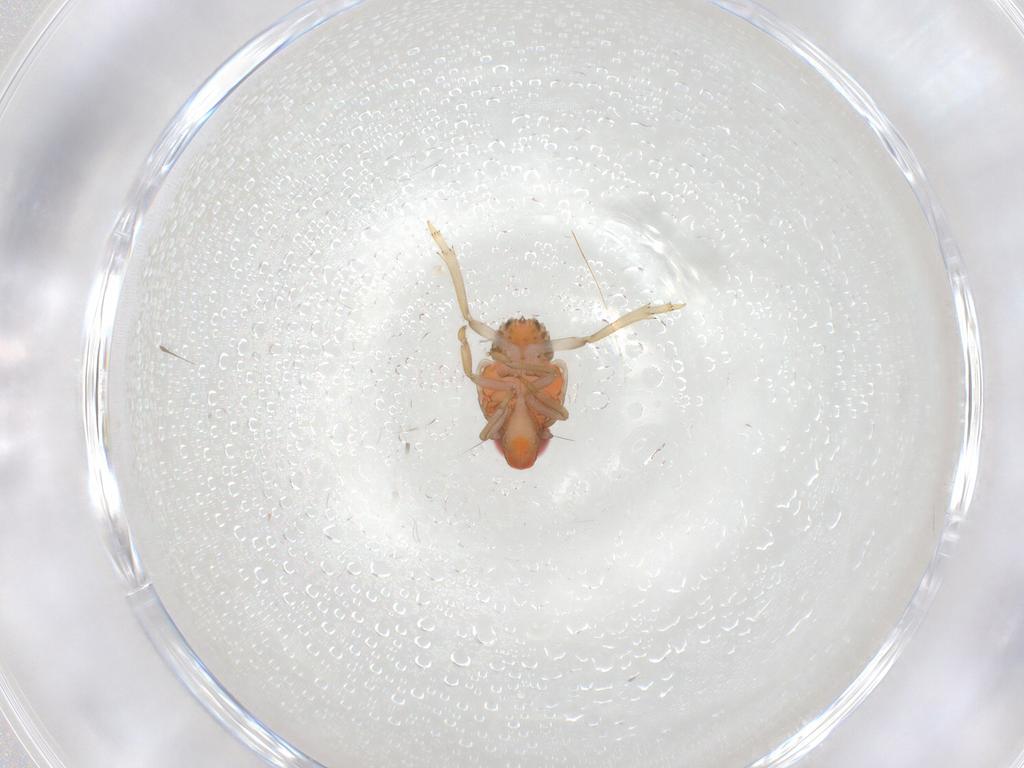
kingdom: Animalia
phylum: Arthropoda
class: Insecta
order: Hemiptera
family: Fulgoroidea_incertae_sedis
